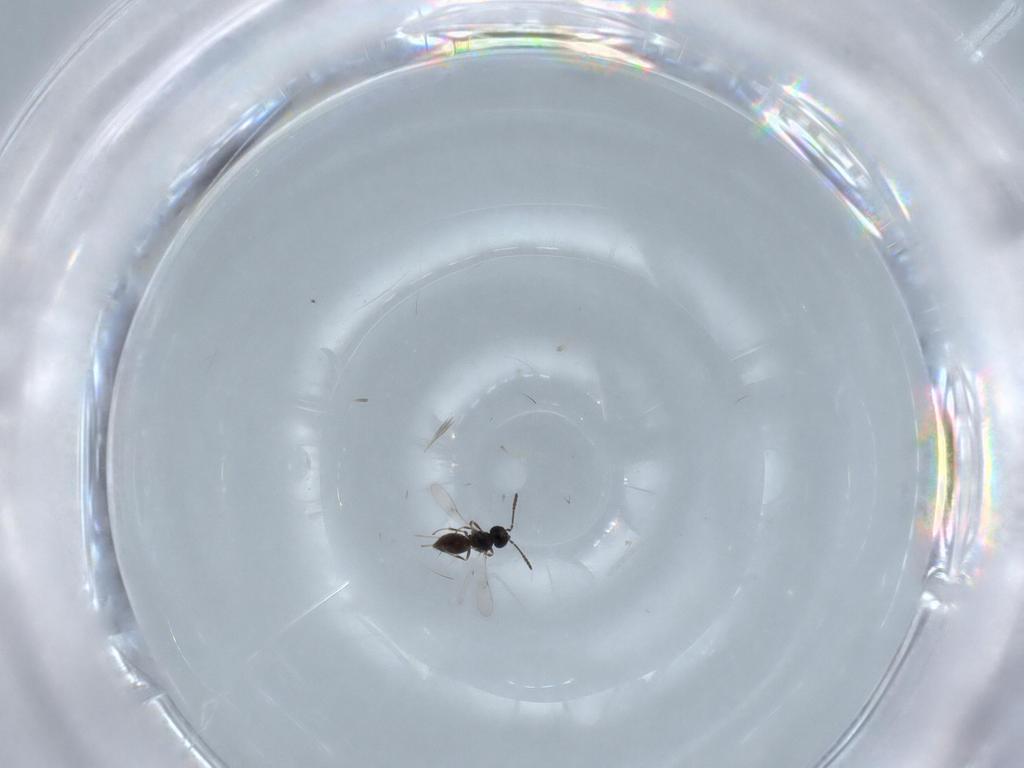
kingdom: Animalia
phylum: Arthropoda
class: Insecta
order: Hymenoptera
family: Scelionidae
